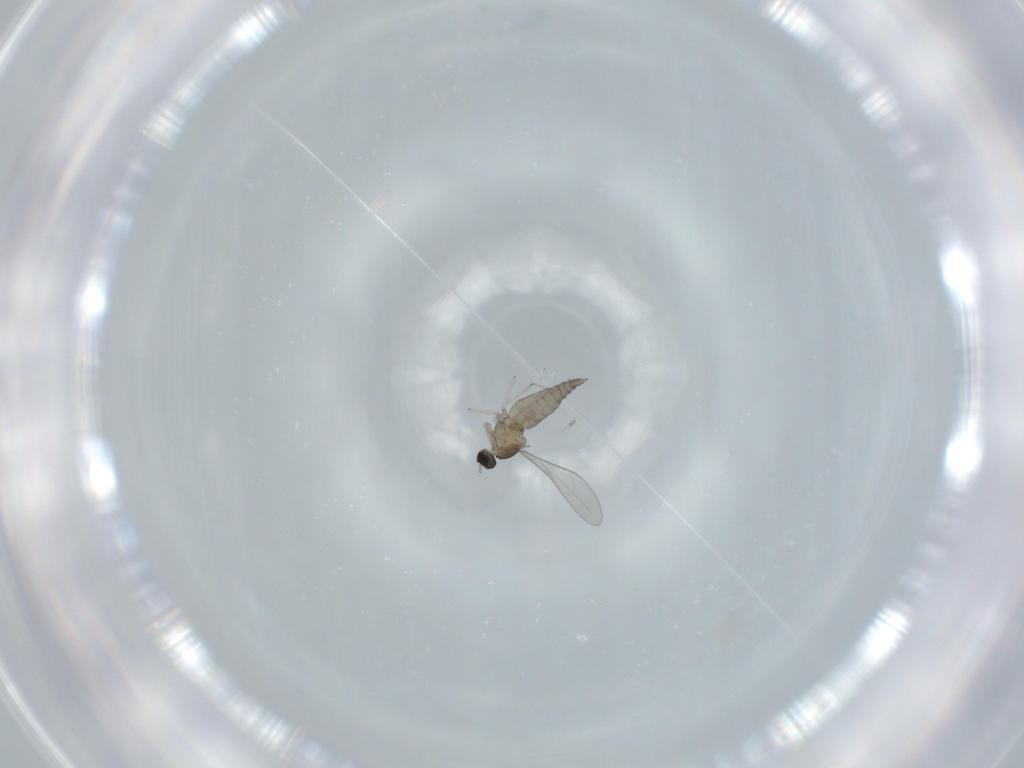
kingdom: Animalia
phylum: Arthropoda
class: Insecta
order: Diptera
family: Cecidomyiidae
